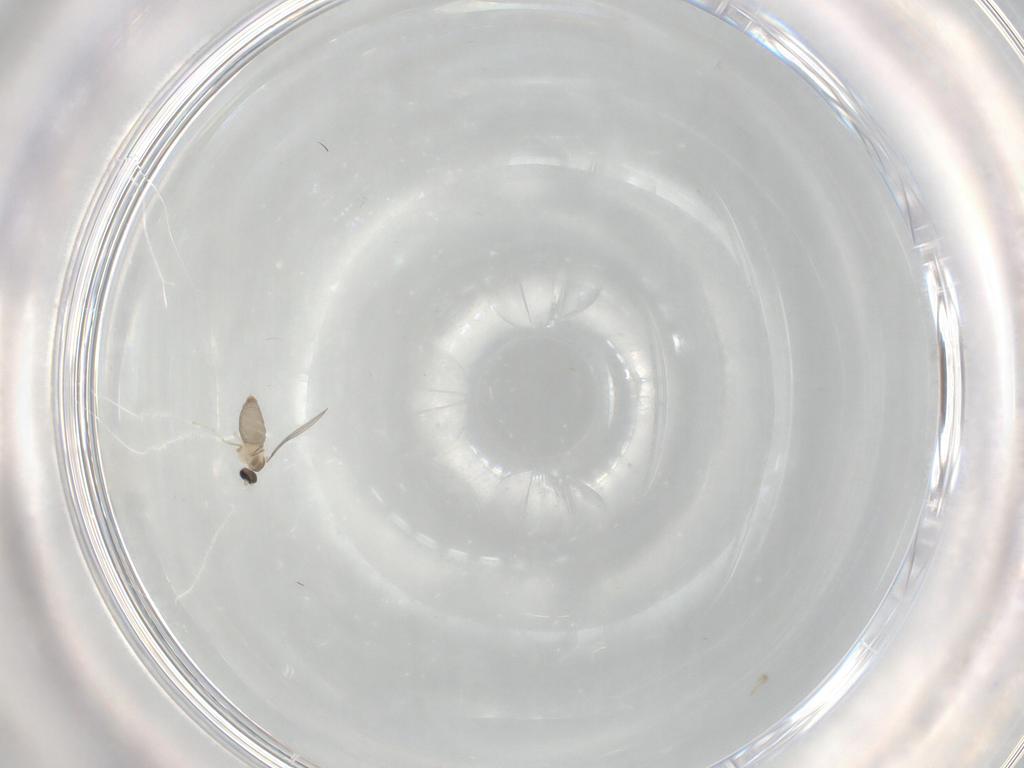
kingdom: Animalia
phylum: Arthropoda
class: Insecta
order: Diptera
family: Cecidomyiidae
